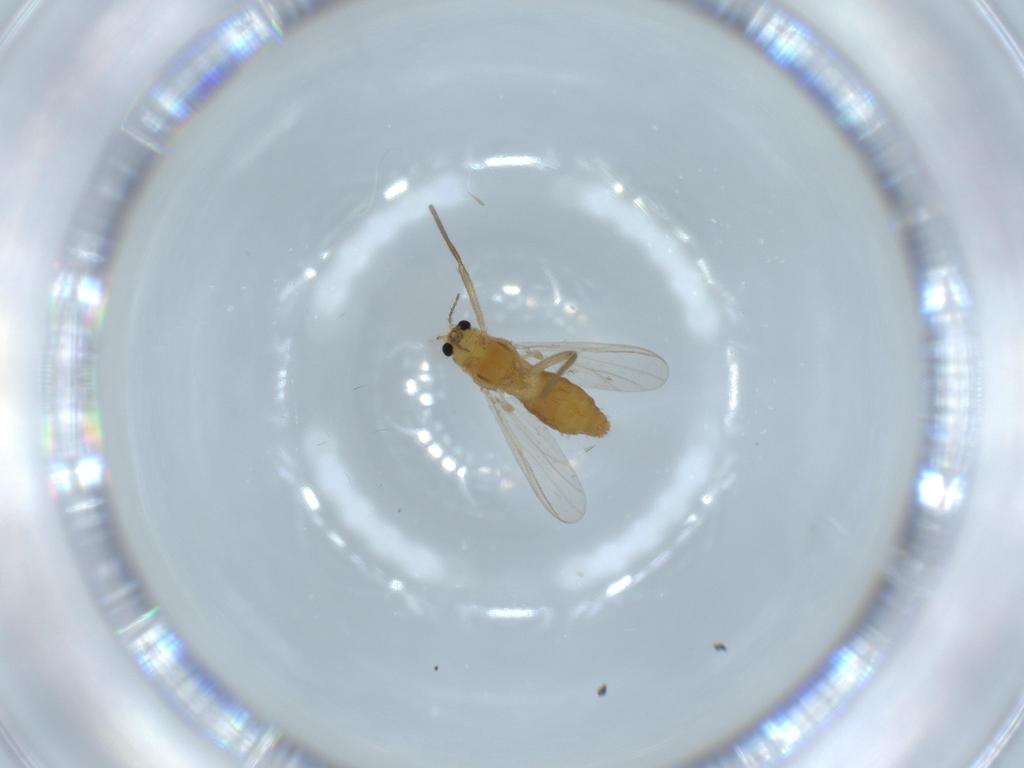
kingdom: Animalia
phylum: Arthropoda
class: Insecta
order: Diptera
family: Chironomidae
